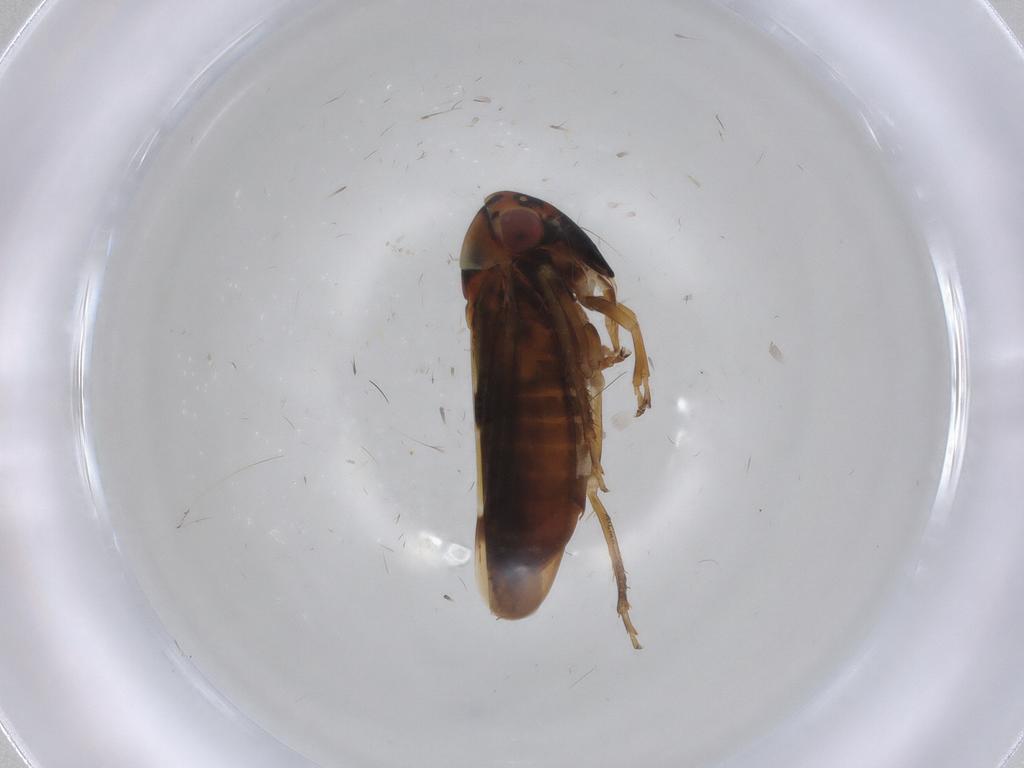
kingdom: Animalia
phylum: Arthropoda
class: Insecta
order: Hemiptera
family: Cicadellidae
